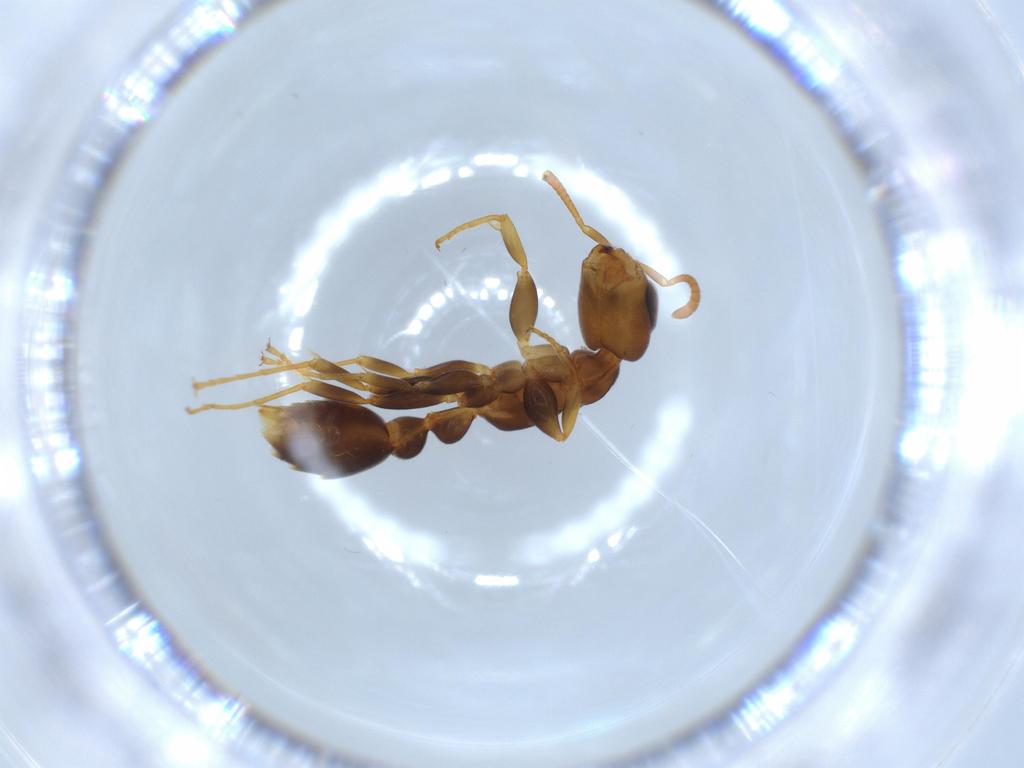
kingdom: Animalia
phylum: Arthropoda
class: Insecta
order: Hymenoptera
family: Formicidae
